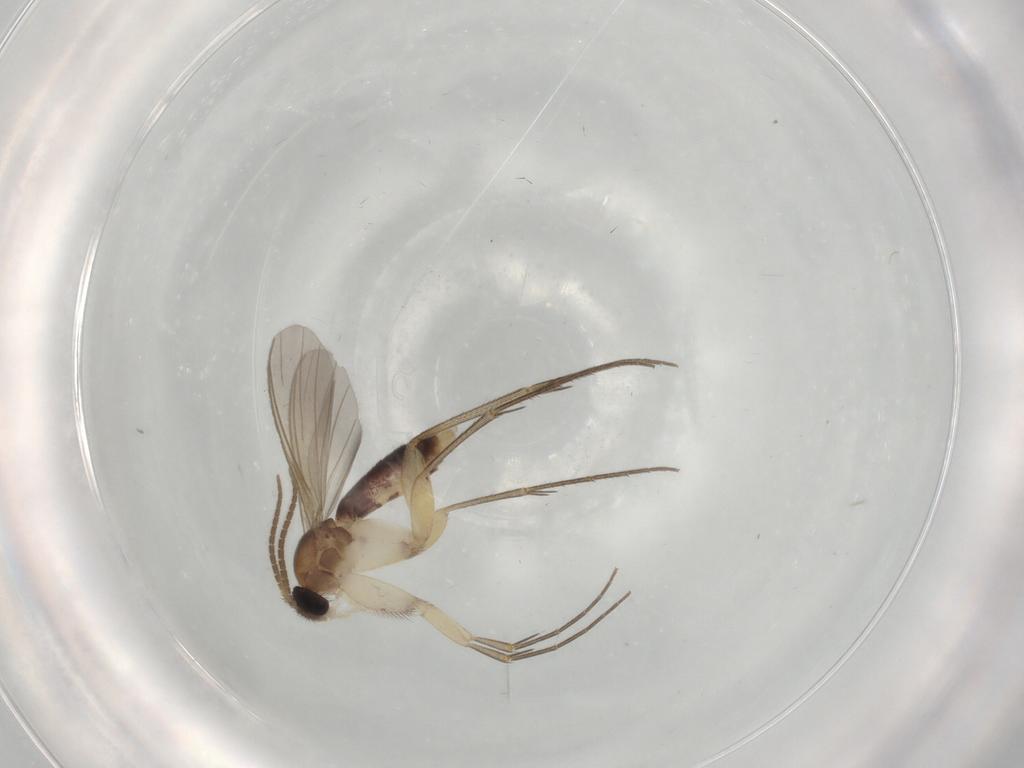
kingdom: Animalia
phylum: Arthropoda
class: Insecta
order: Diptera
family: Mycetophilidae
